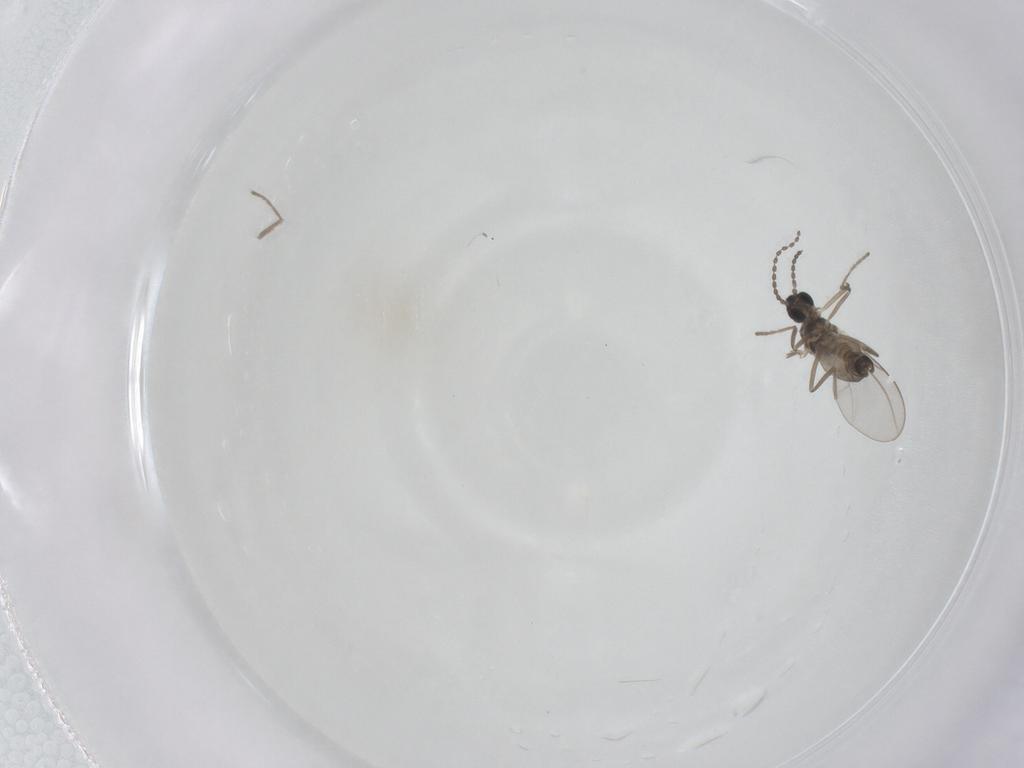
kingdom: Animalia
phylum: Arthropoda
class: Insecta
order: Diptera
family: Cecidomyiidae
